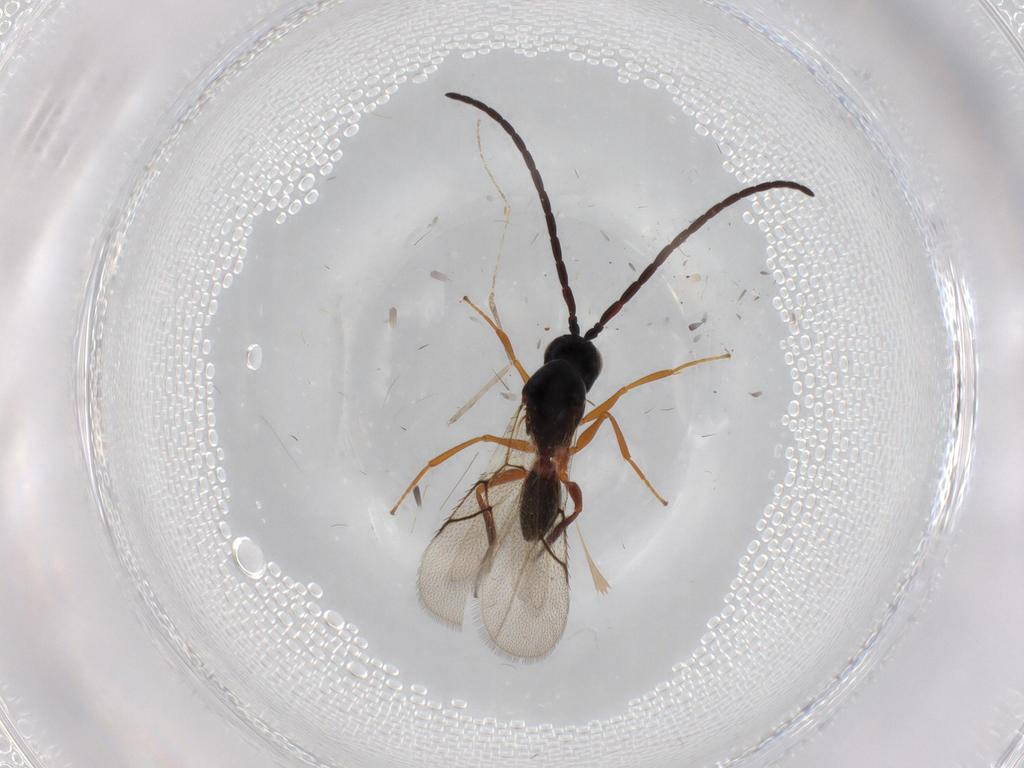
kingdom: Animalia
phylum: Arthropoda
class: Insecta
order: Hymenoptera
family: Figitidae
